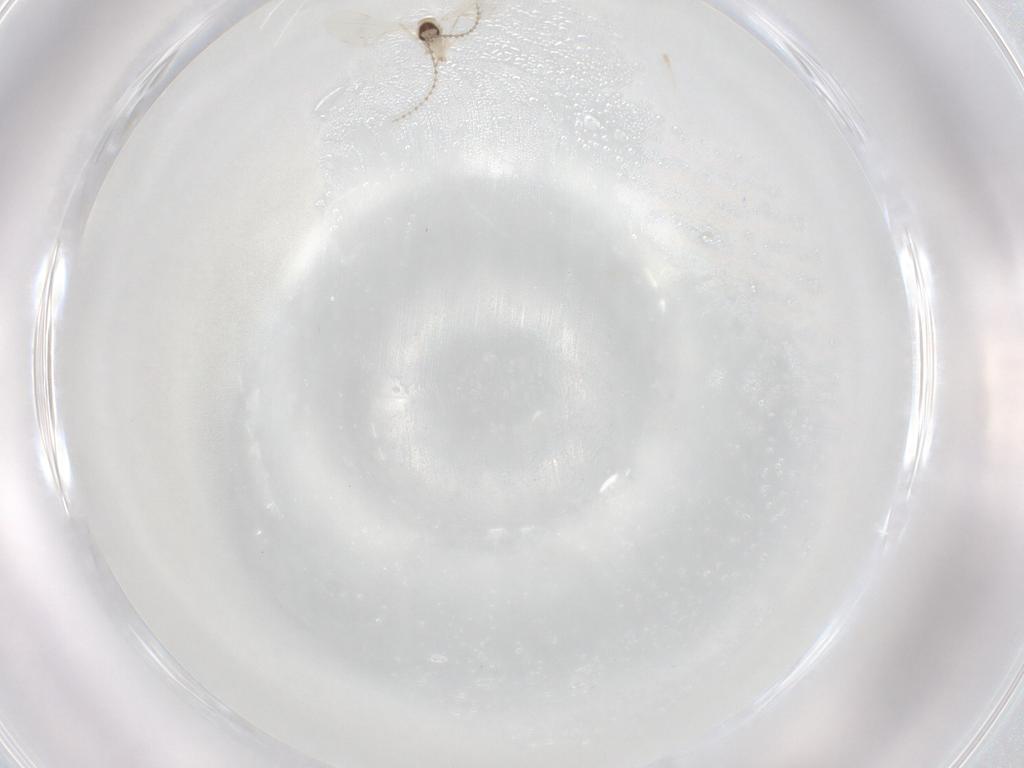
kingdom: Animalia
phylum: Arthropoda
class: Insecta
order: Diptera
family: Cecidomyiidae
